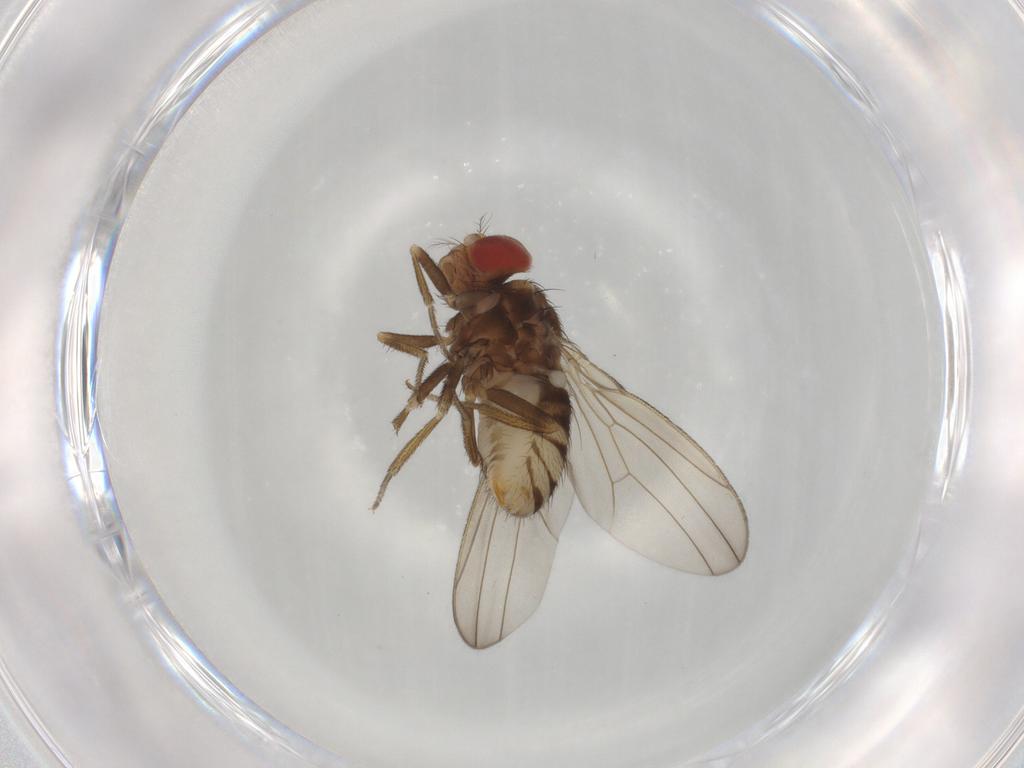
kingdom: Animalia
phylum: Arthropoda
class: Insecta
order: Diptera
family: Drosophilidae
